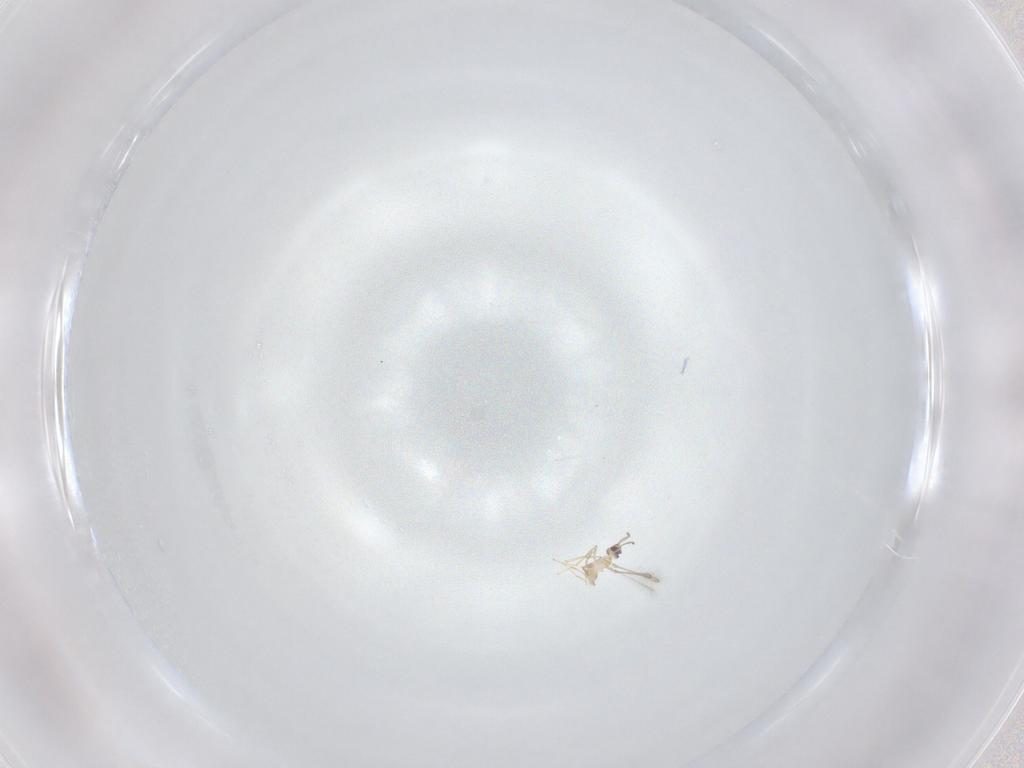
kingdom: Animalia
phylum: Arthropoda
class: Insecta
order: Hymenoptera
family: Mymaridae
